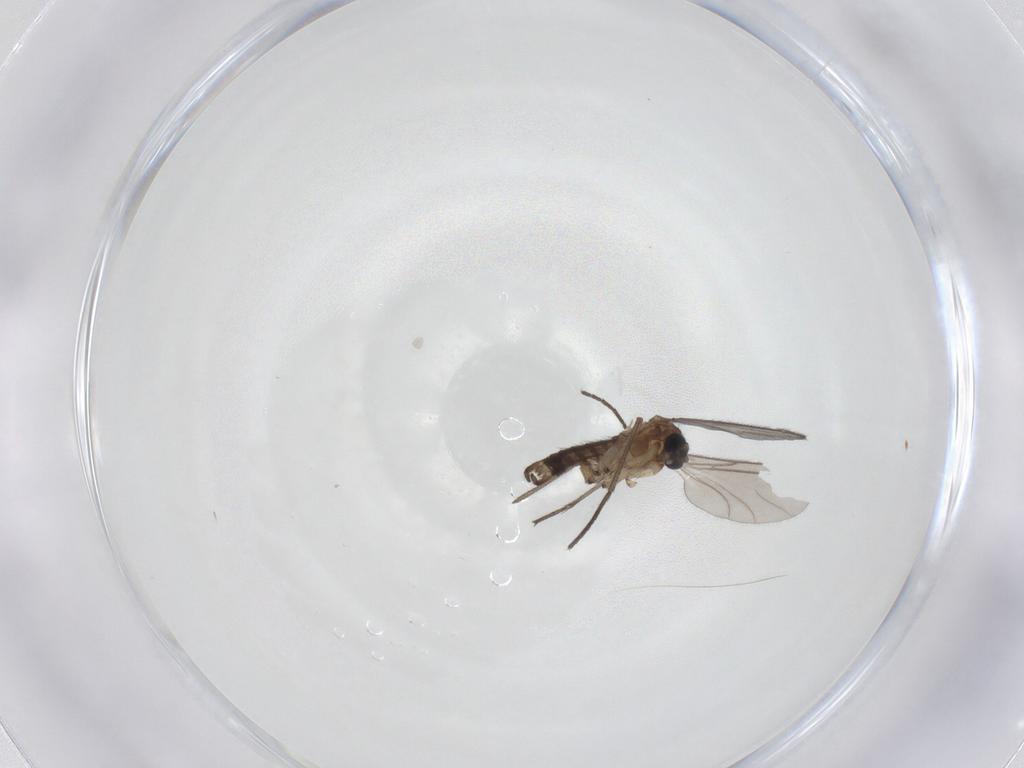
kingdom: Animalia
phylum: Arthropoda
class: Insecta
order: Diptera
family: Sciaridae
